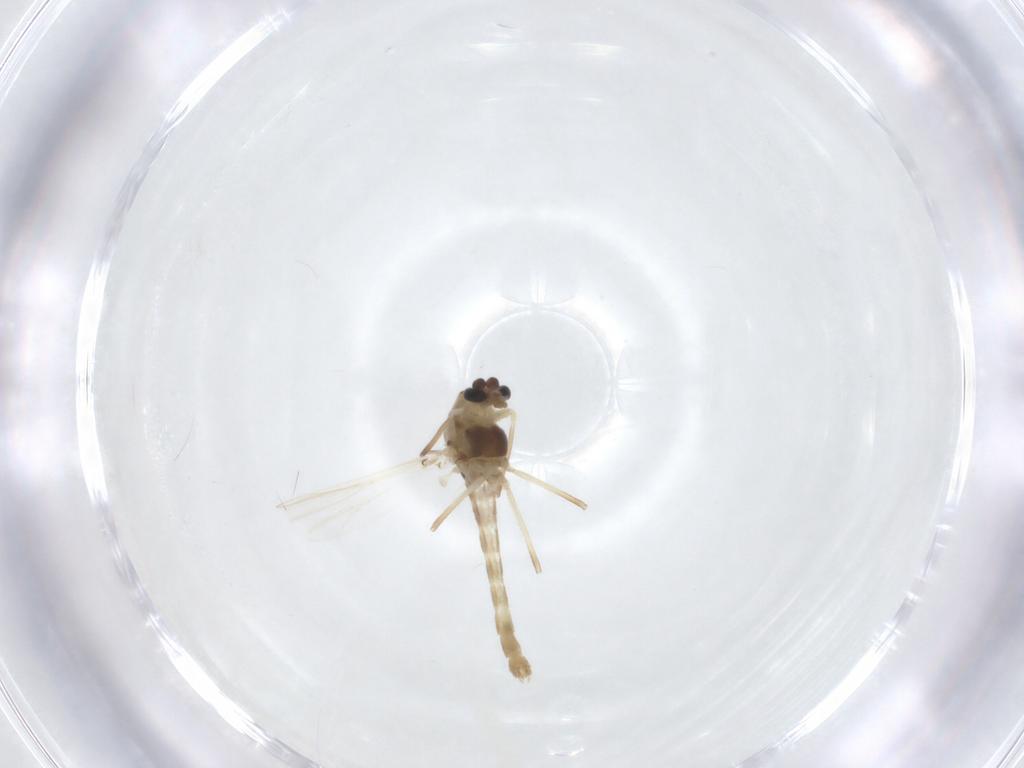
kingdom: Animalia
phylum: Arthropoda
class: Insecta
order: Diptera
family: Chironomidae
